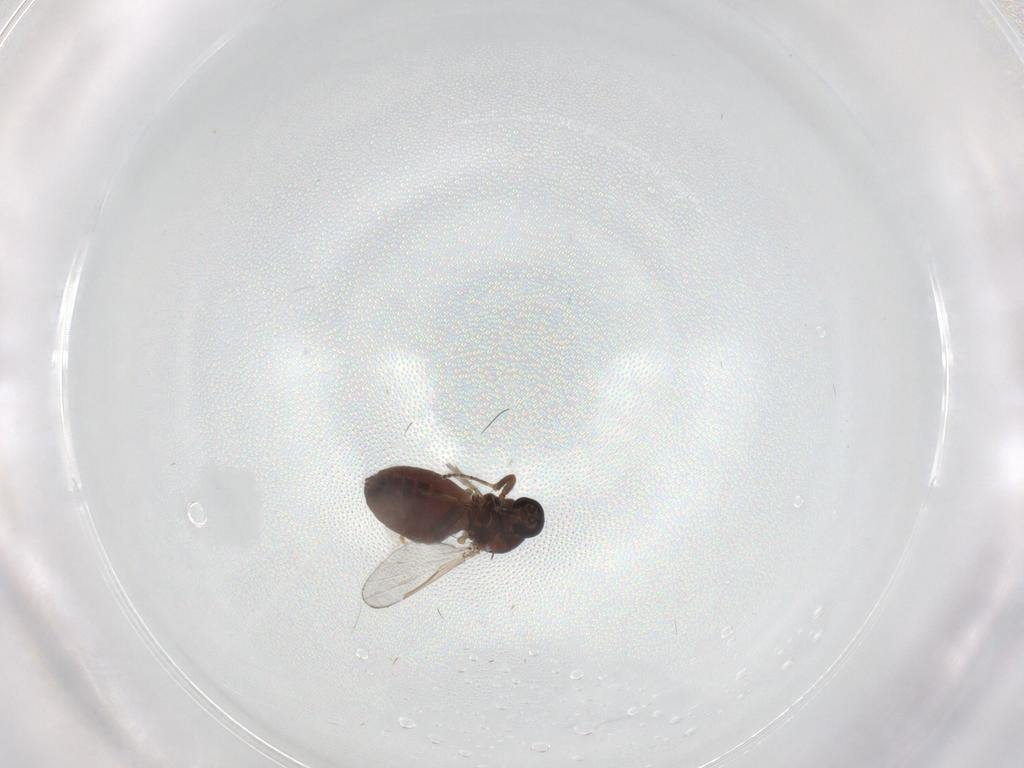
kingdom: Animalia
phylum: Arthropoda
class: Insecta
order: Diptera
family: Ceratopogonidae
